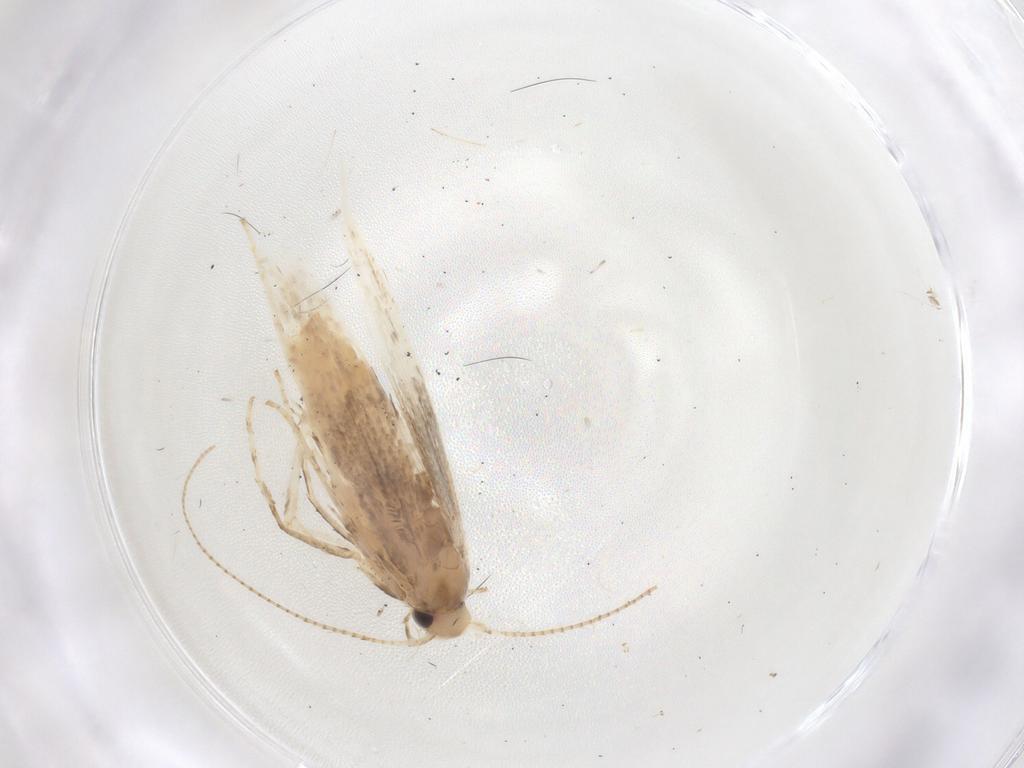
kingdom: Animalia
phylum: Arthropoda
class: Insecta
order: Lepidoptera
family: Gracillariidae
